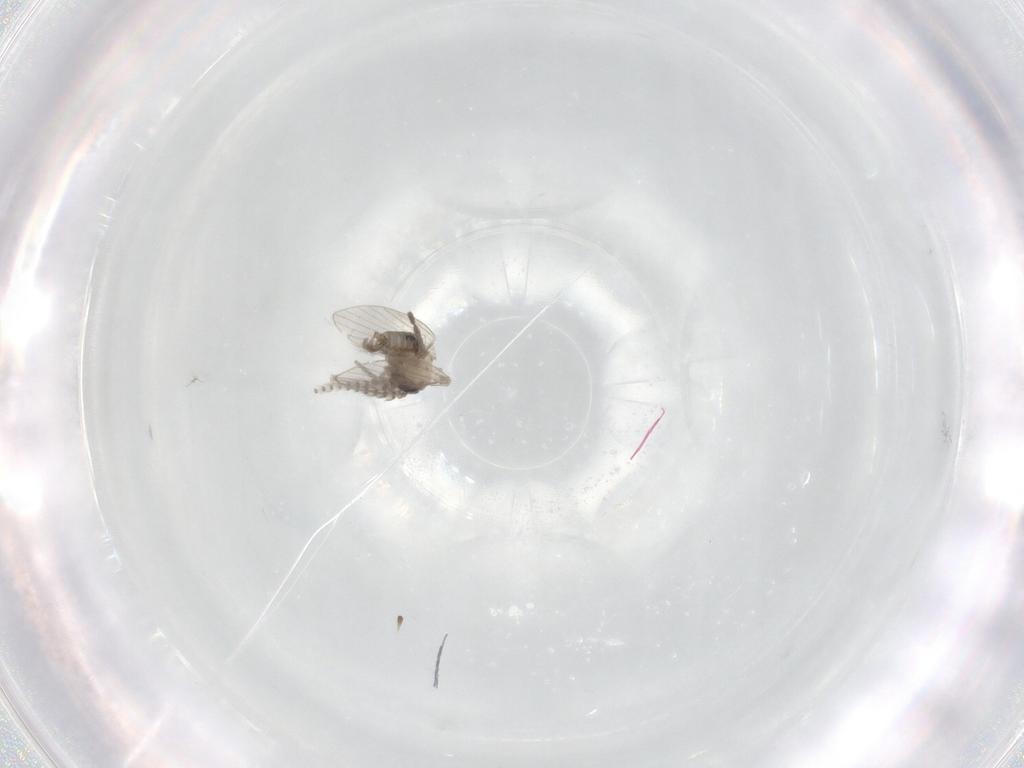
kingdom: Animalia
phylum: Arthropoda
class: Insecta
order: Diptera
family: Psychodidae
